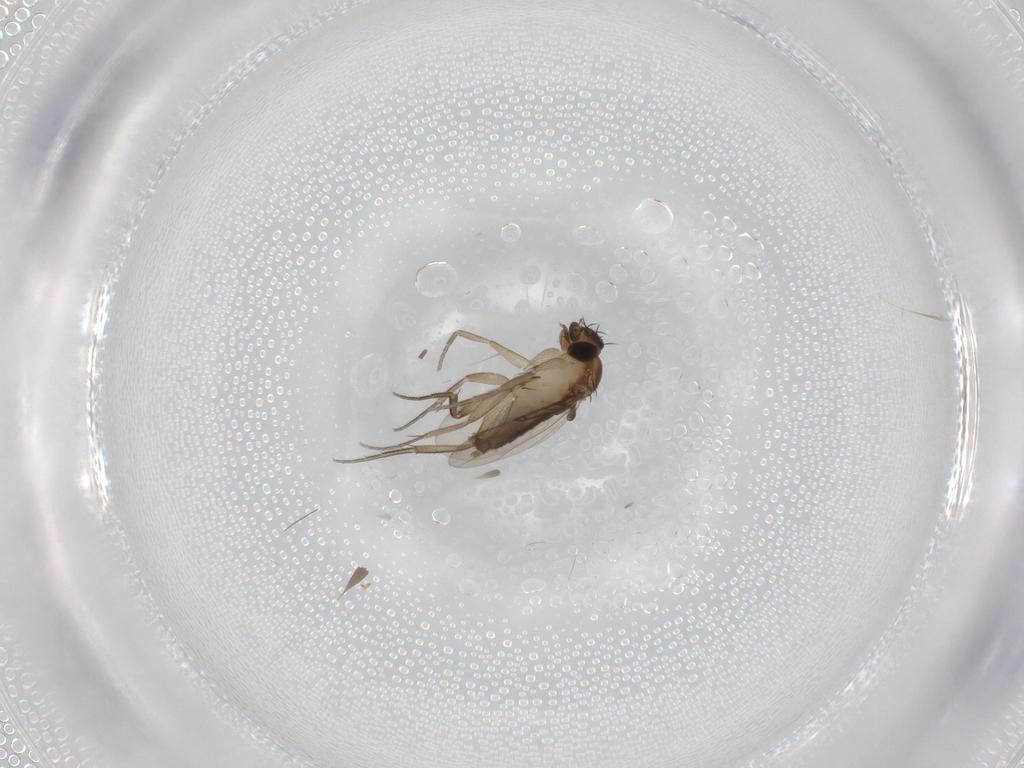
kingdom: Animalia
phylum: Arthropoda
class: Insecta
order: Diptera
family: Phoridae
